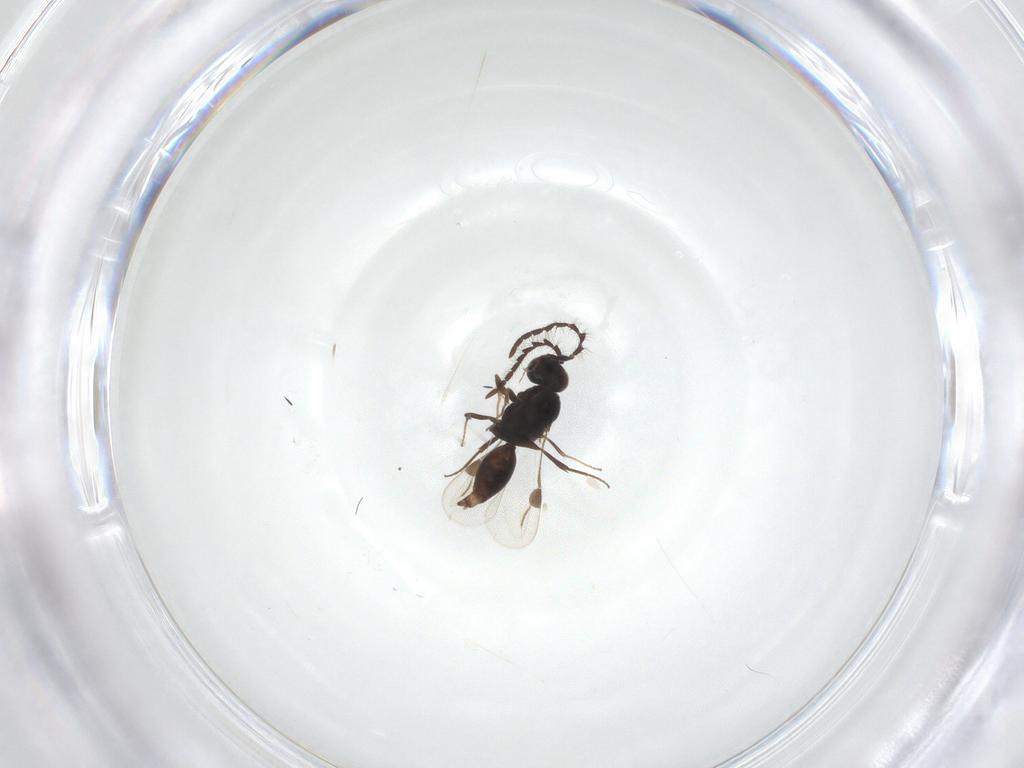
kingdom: Animalia
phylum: Arthropoda
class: Insecta
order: Hymenoptera
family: Megaspilidae
